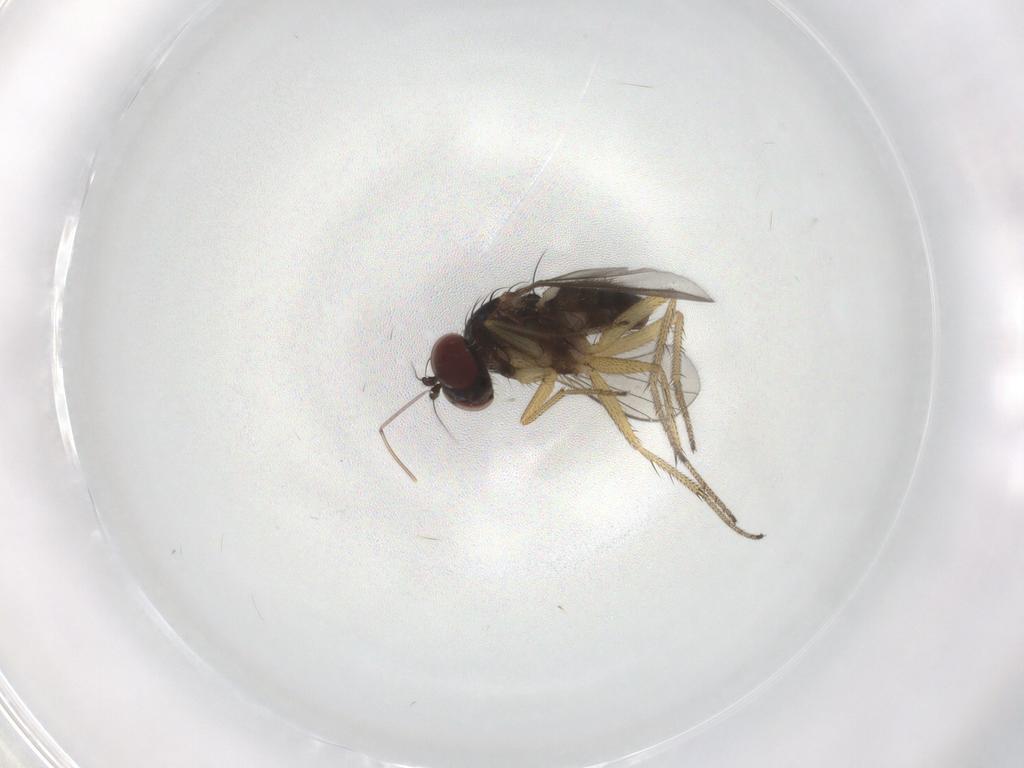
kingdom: Animalia
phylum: Arthropoda
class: Insecta
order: Diptera
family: Dolichopodidae
